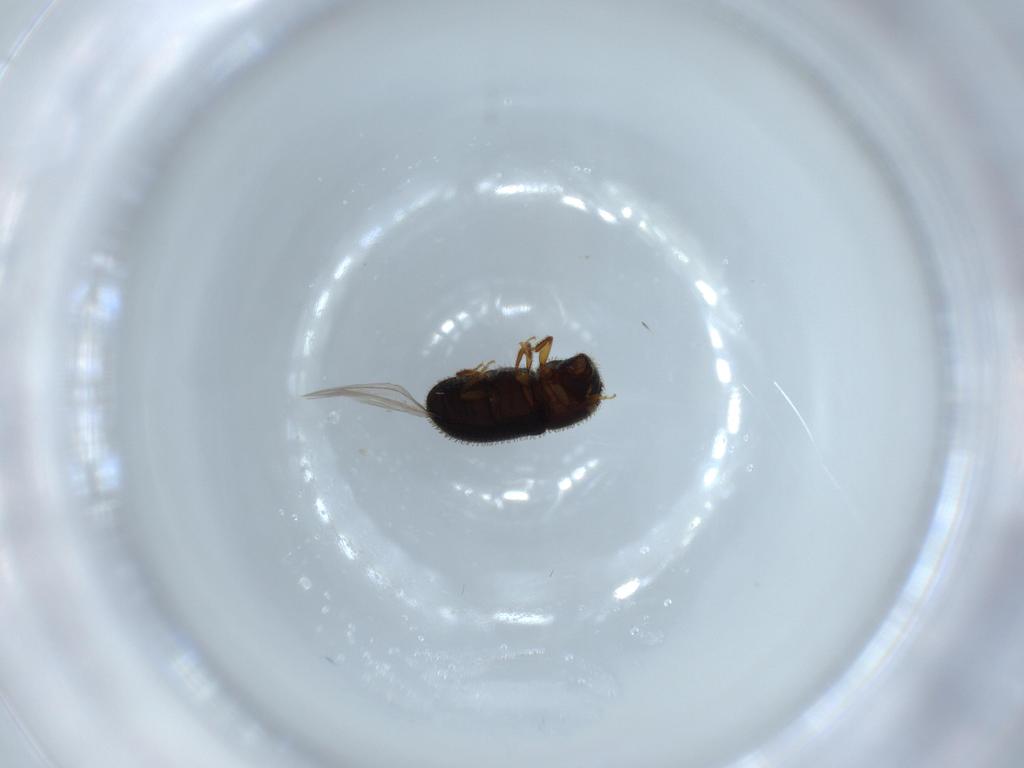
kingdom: Animalia
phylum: Arthropoda
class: Insecta
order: Coleoptera
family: Curculionidae
